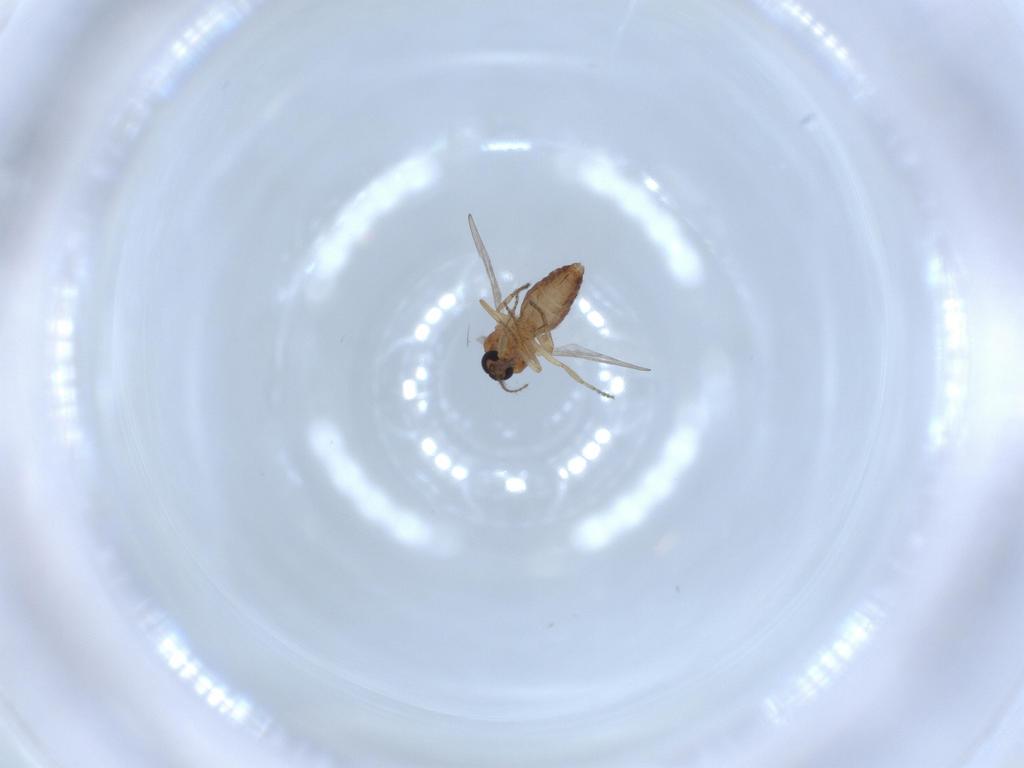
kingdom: Animalia
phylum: Arthropoda
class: Insecta
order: Diptera
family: Ceratopogonidae
